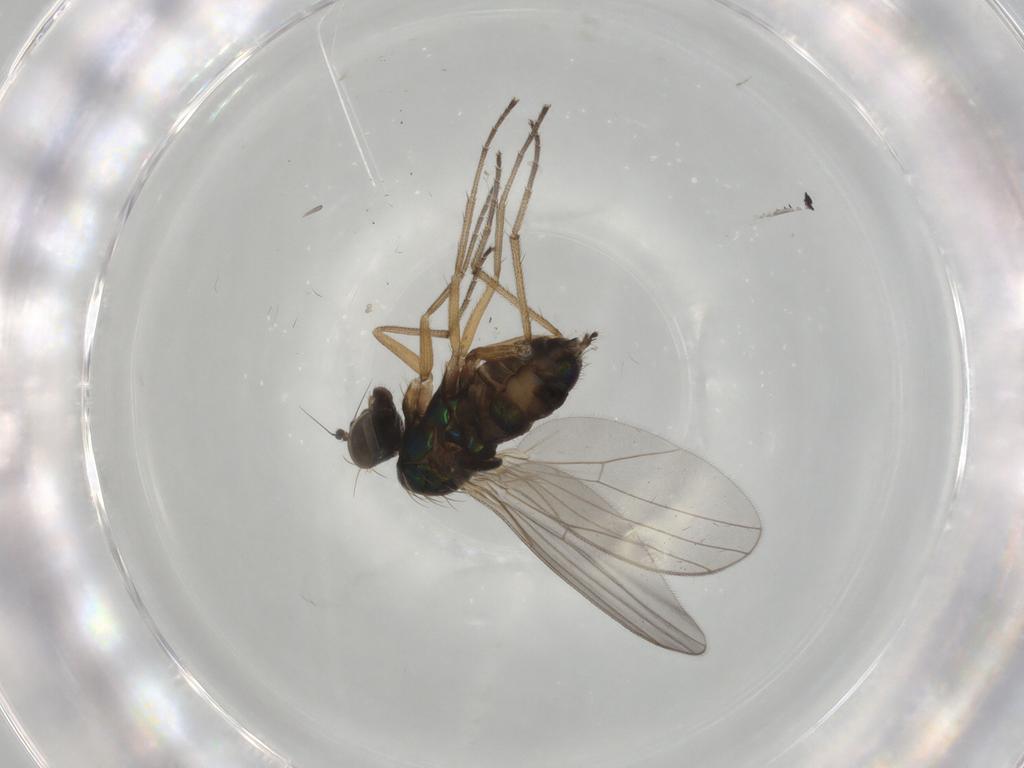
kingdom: Animalia
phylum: Arthropoda
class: Insecta
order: Diptera
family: Dolichopodidae
